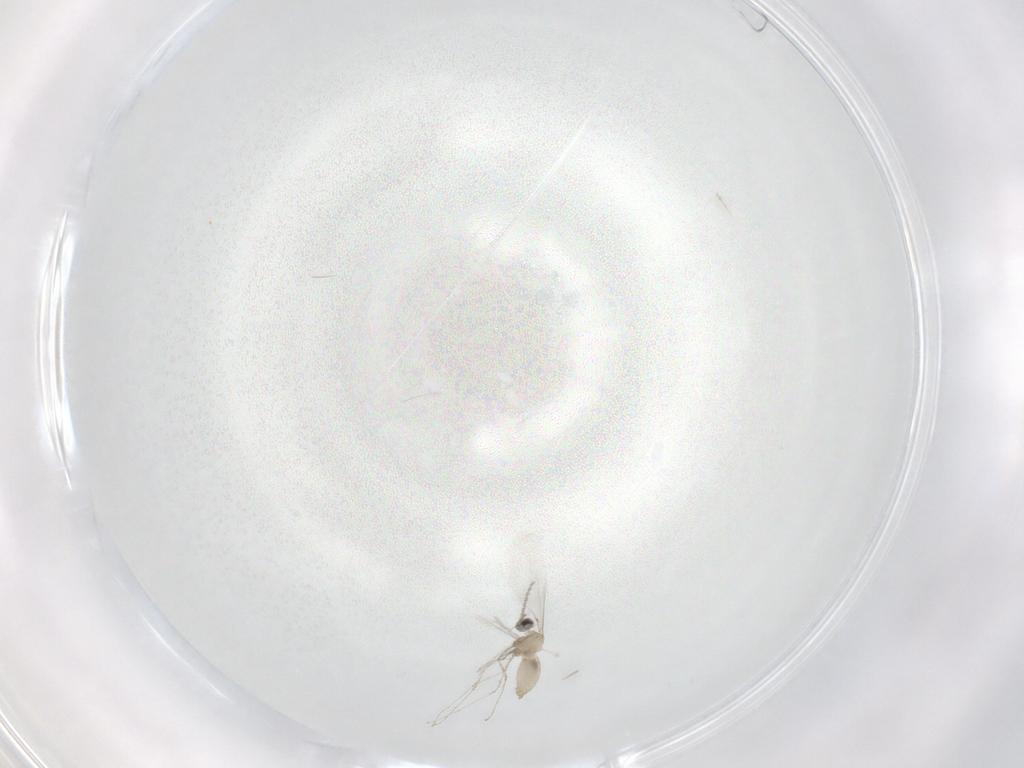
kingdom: Animalia
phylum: Arthropoda
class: Insecta
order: Diptera
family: Cecidomyiidae
